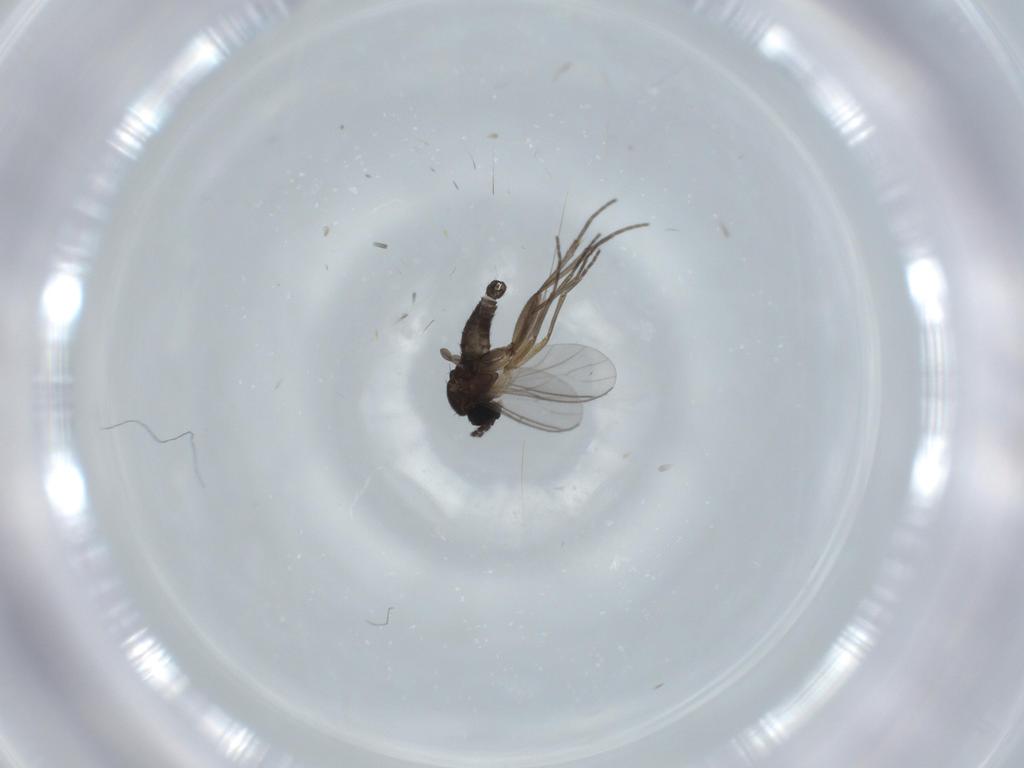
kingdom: Animalia
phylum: Arthropoda
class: Insecta
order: Diptera
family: Sciaridae
